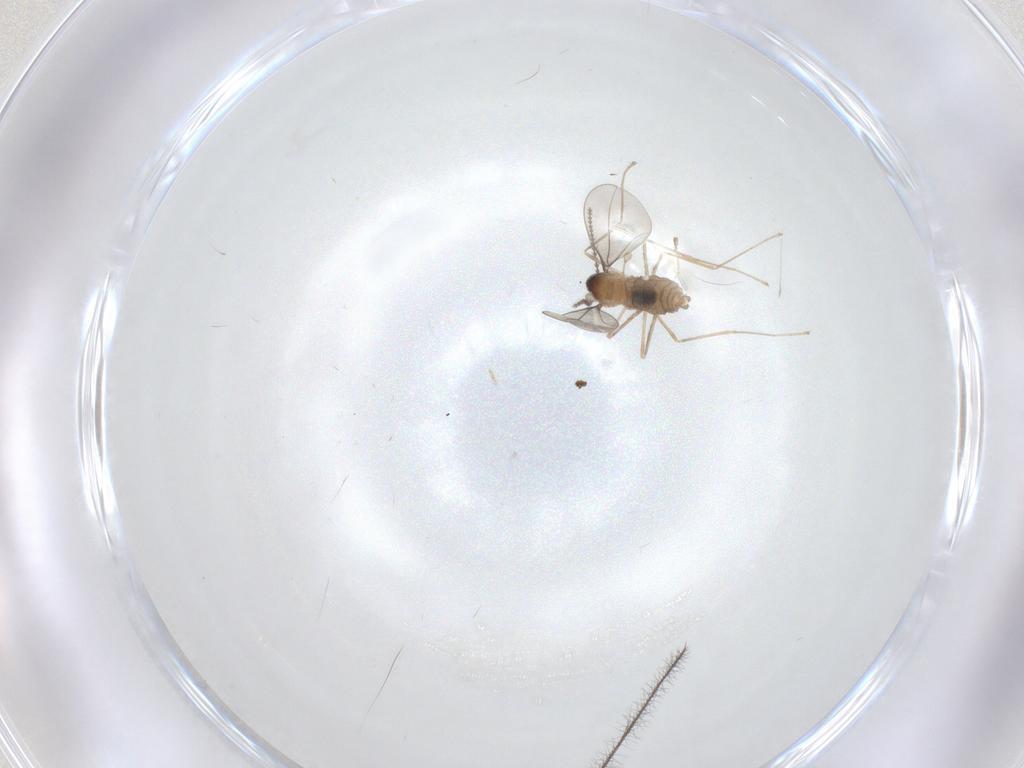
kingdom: Animalia
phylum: Arthropoda
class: Insecta
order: Diptera
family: Cecidomyiidae
